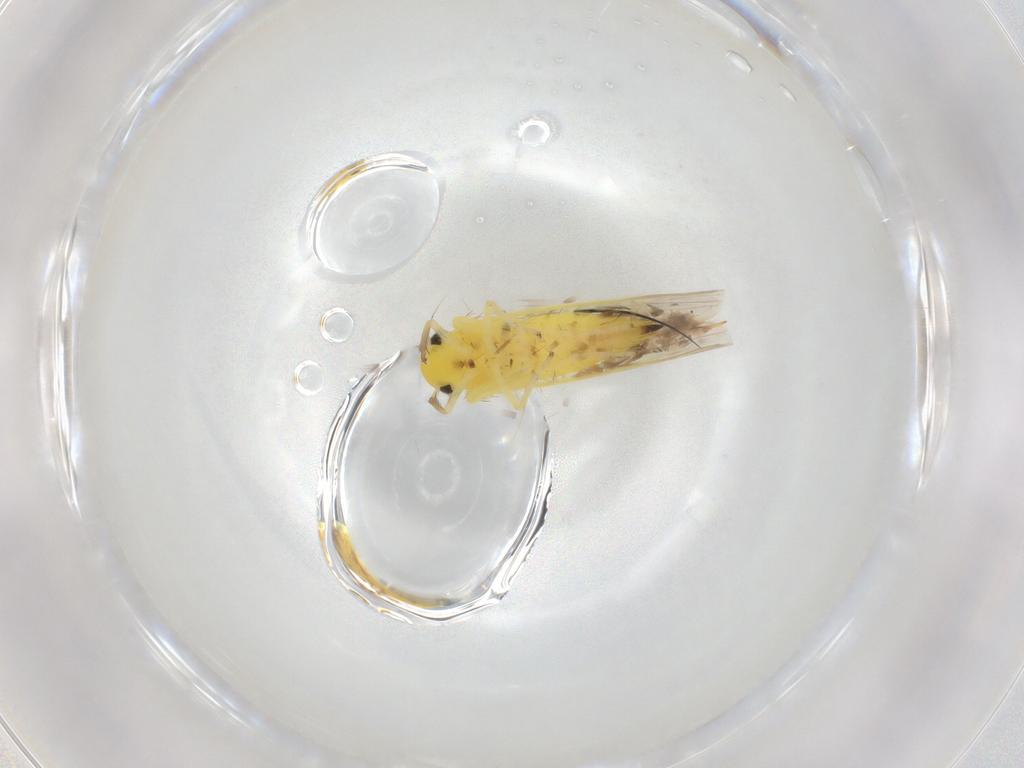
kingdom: Animalia
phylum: Arthropoda
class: Insecta
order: Hemiptera
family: Cicadellidae
